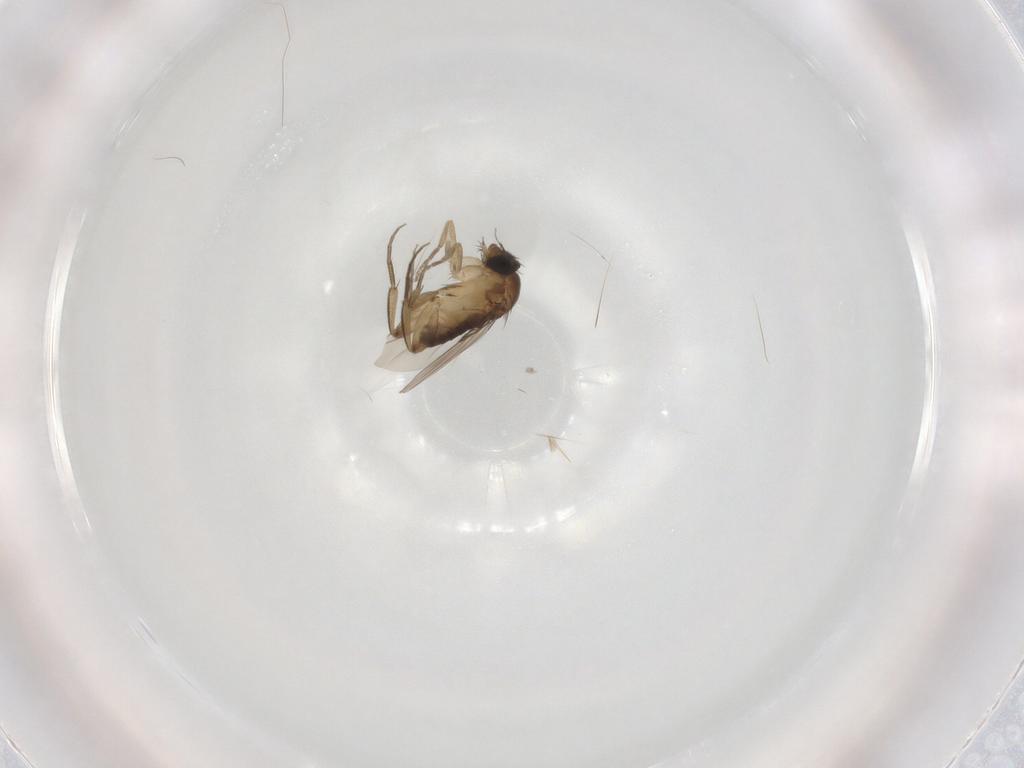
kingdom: Animalia
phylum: Arthropoda
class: Insecta
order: Diptera
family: Phoridae
